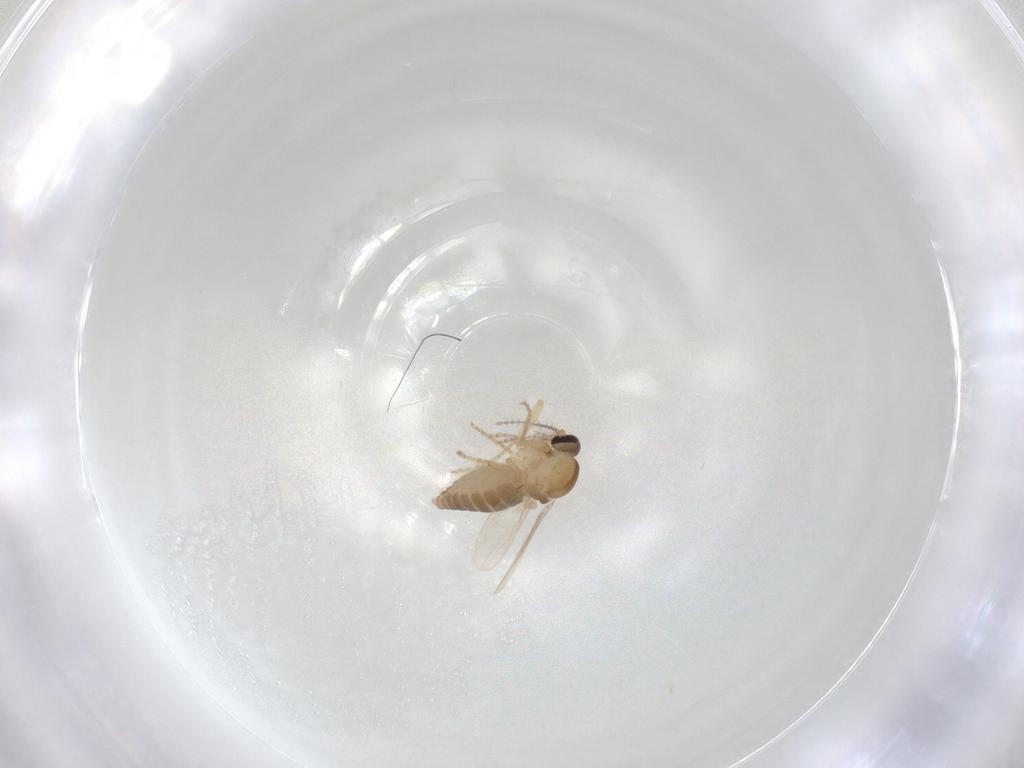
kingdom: Animalia
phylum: Arthropoda
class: Insecta
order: Diptera
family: Ceratopogonidae
